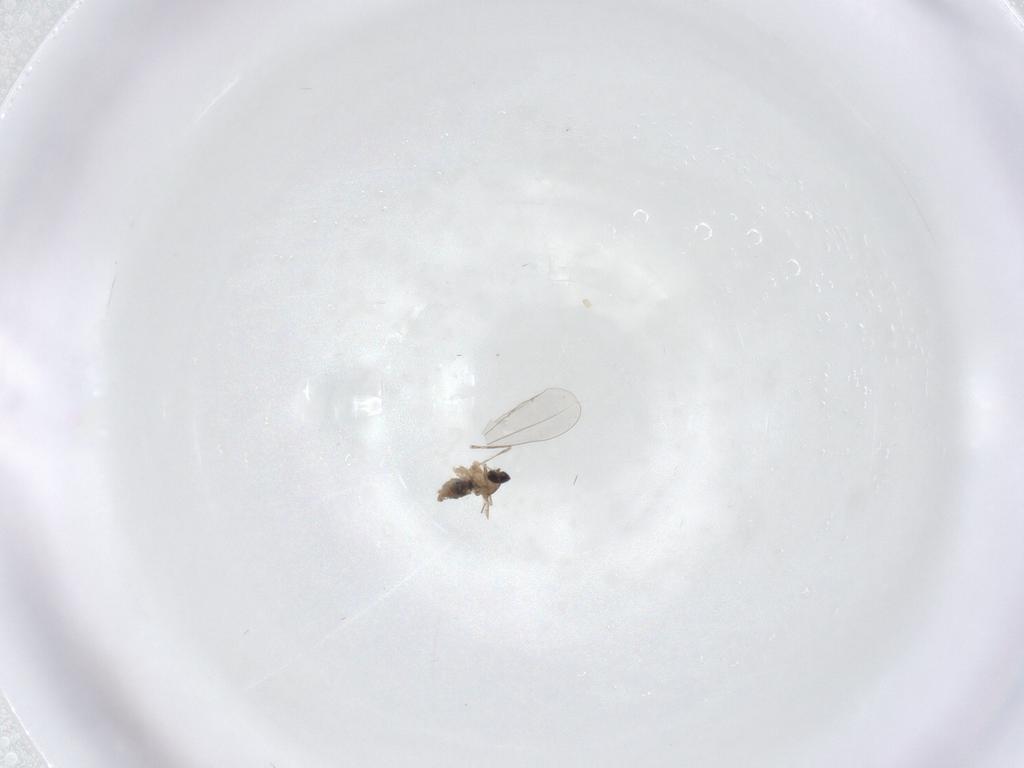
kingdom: Animalia
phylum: Arthropoda
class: Insecta
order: Diptera
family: Cecidomyiidae
